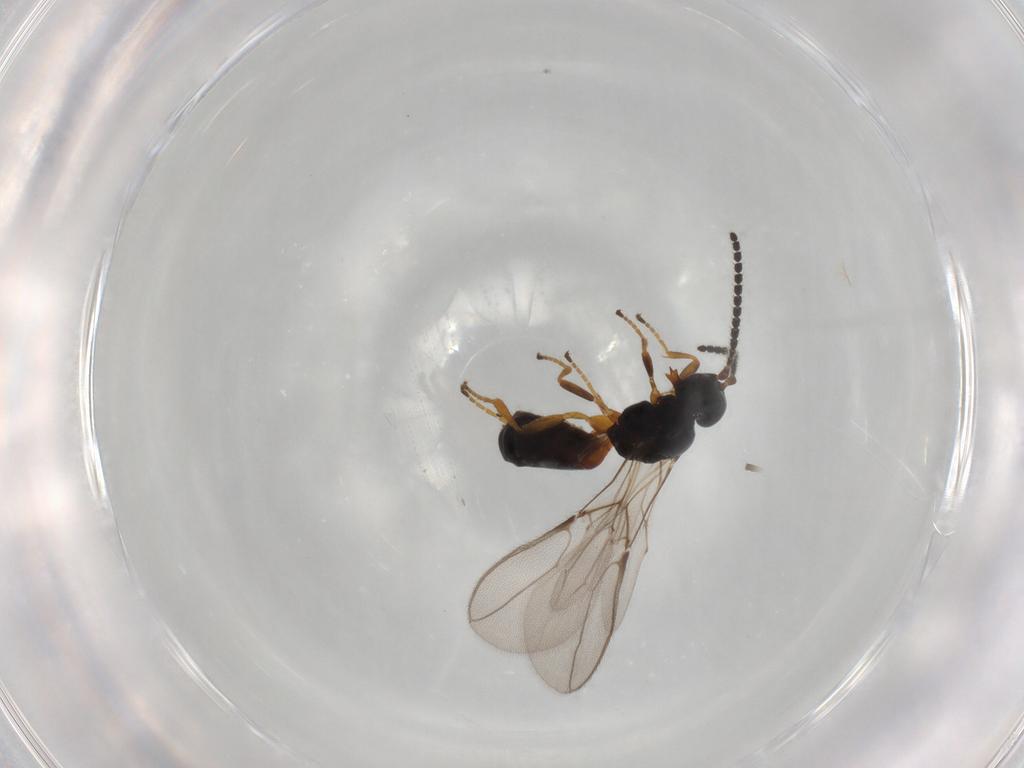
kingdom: Animalia
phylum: Arthropoda
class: Insecta
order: Hymenoptera
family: Braconidae
